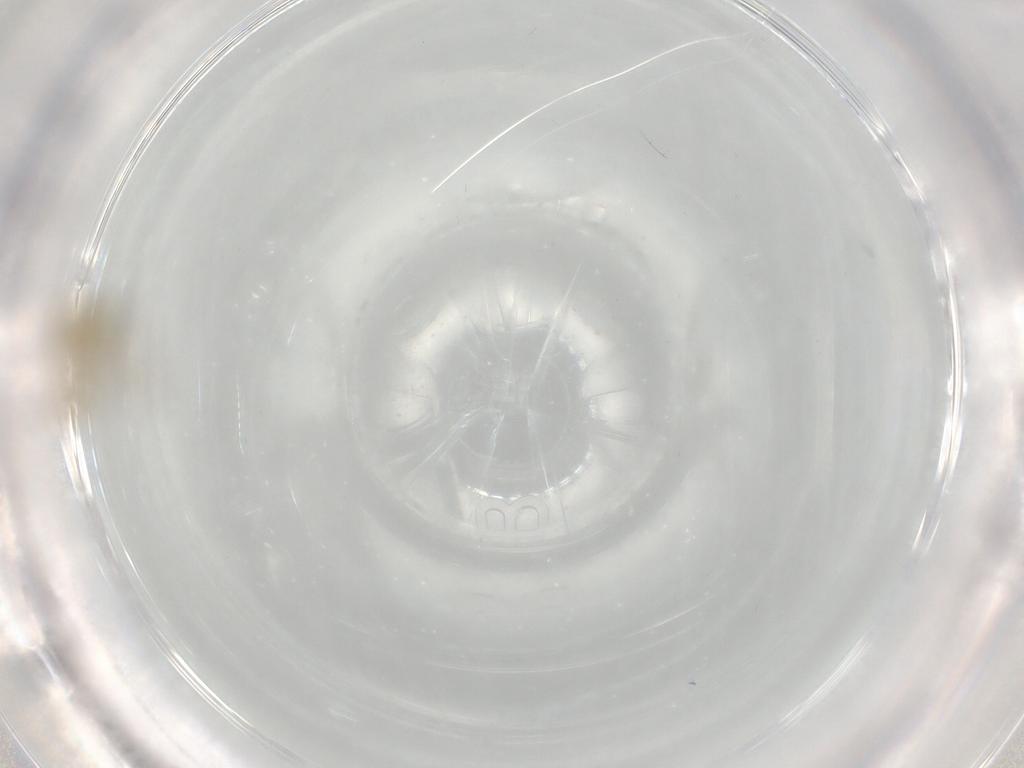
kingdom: Animalia
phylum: Arthropoda
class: Insecta
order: Diptera
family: Chironomidae
